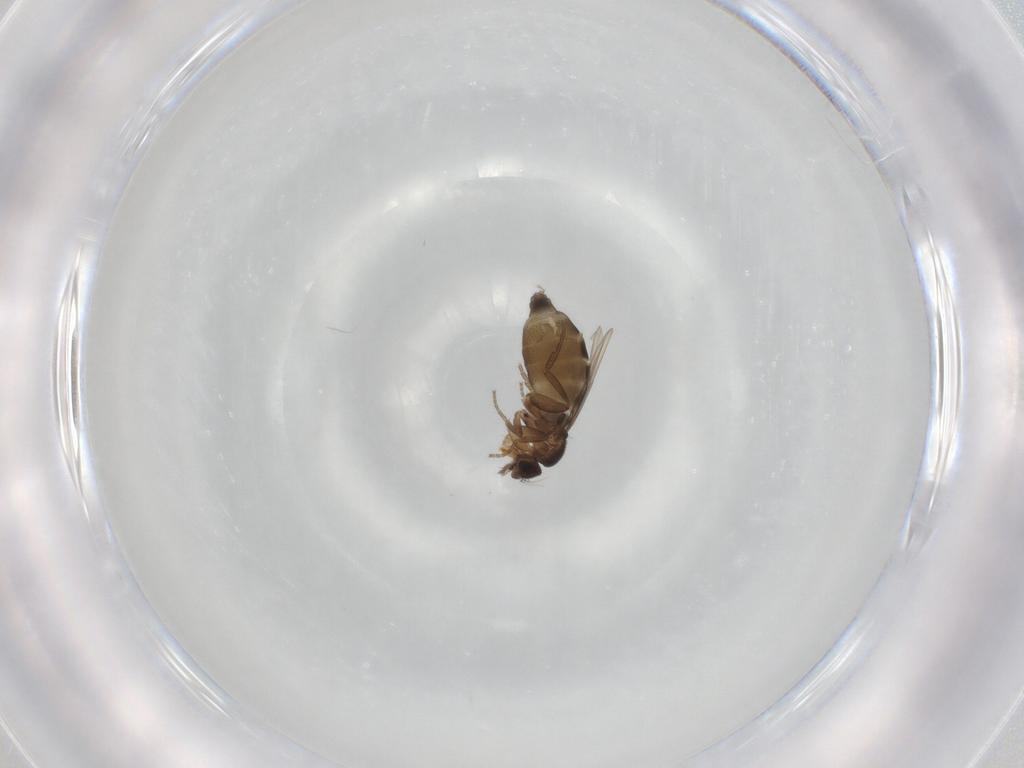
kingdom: Animalia
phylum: Arthropoda
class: Insecta
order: Diptera
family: Phoridae
